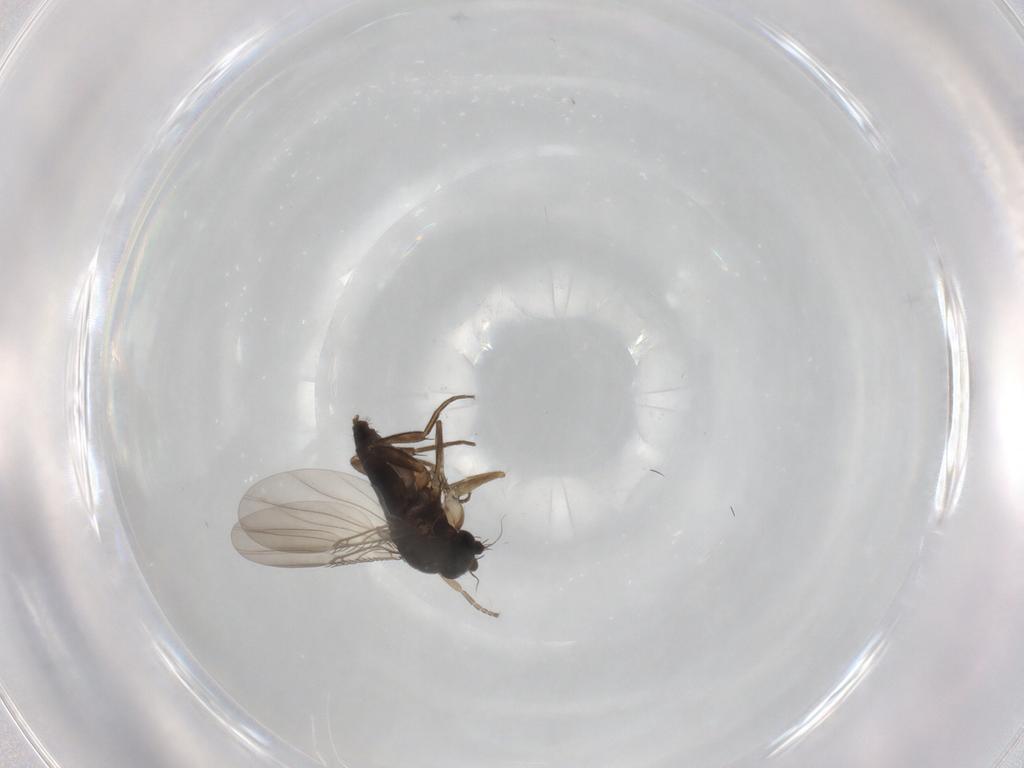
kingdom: Animalia
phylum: Arthropoda
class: Insecta
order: Diptera
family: Phoridae
